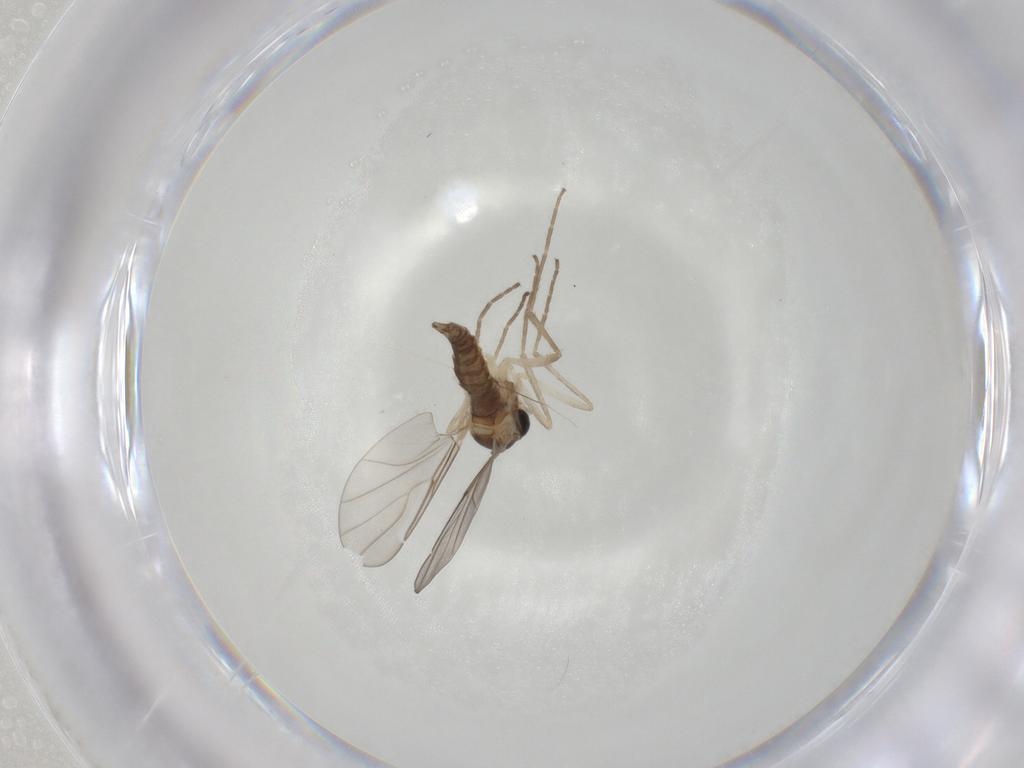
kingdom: Animalia
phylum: Arthropoda
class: Insecta
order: Diptera
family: Cecidomyiidae
